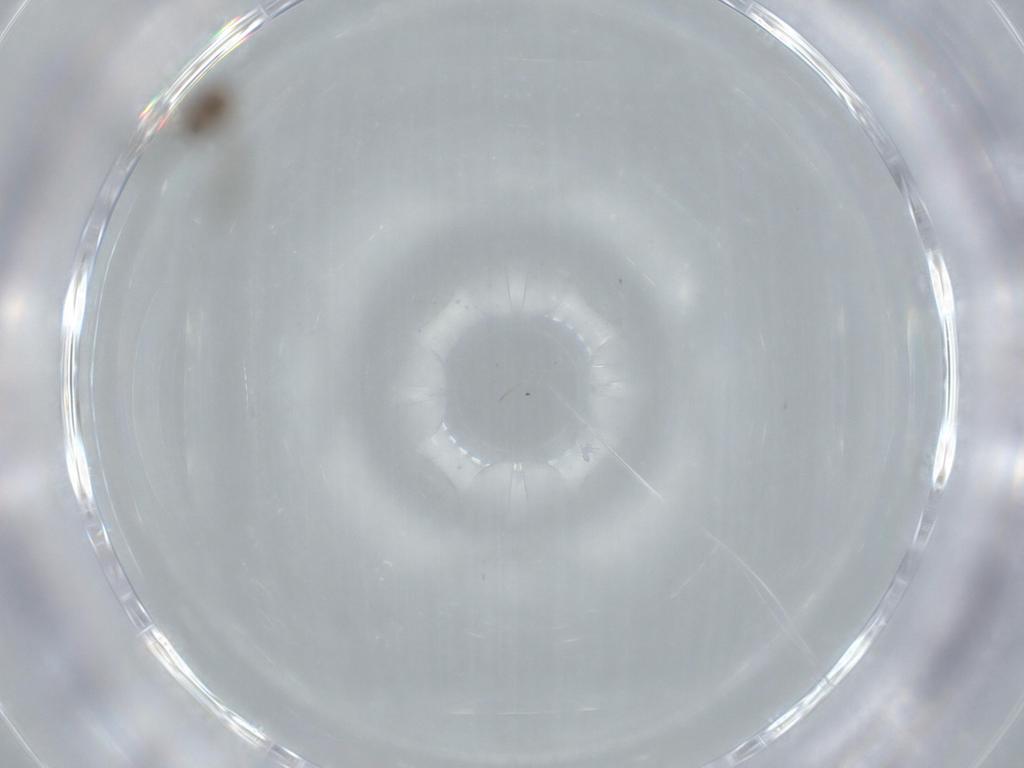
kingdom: Animalia
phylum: Arthropoda
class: Insecta
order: Diptera
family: Cecidomyiidae
